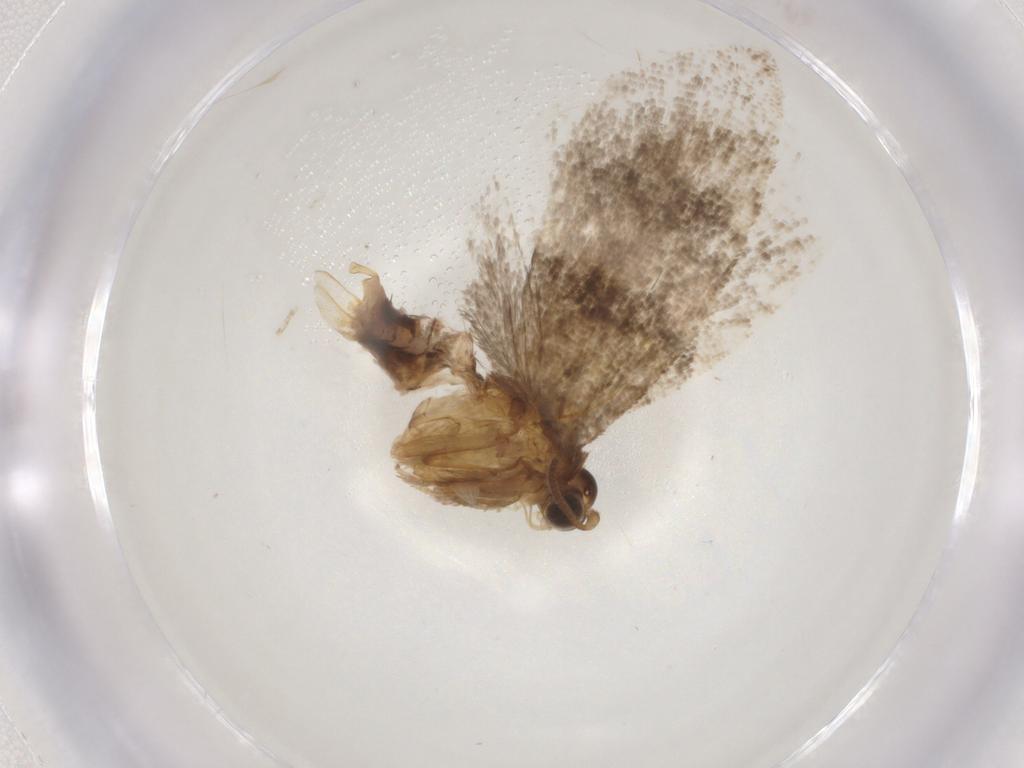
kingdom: Animalia
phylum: Arthropoda
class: Insecta
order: Lepidoptera
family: Tortricidae
